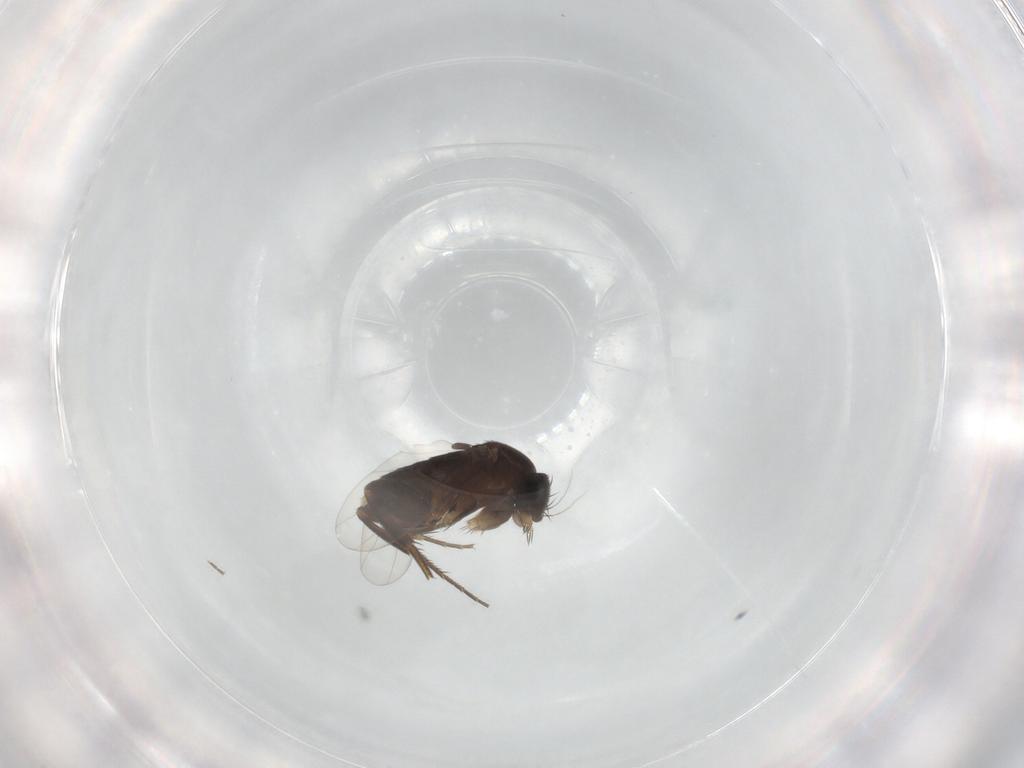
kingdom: Animalia
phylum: Arthropoda
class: Insecta
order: Diptera
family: Phoridae
